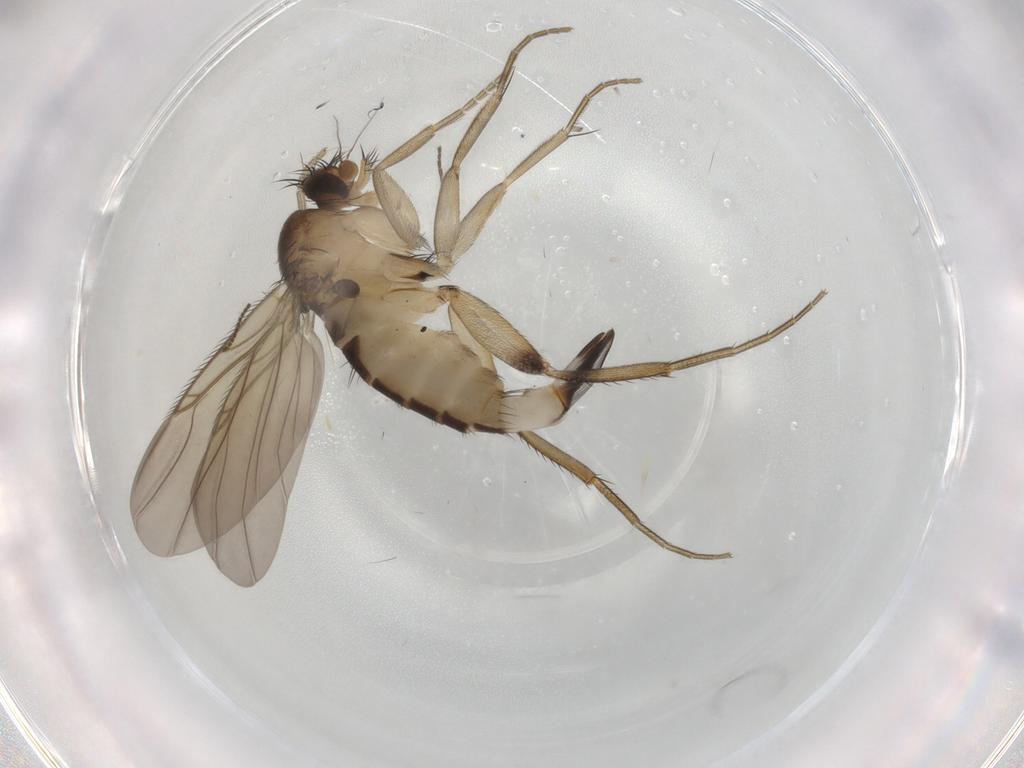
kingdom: Animalia
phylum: Arthropoda
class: Insecta
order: Diptera
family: Phoridae
